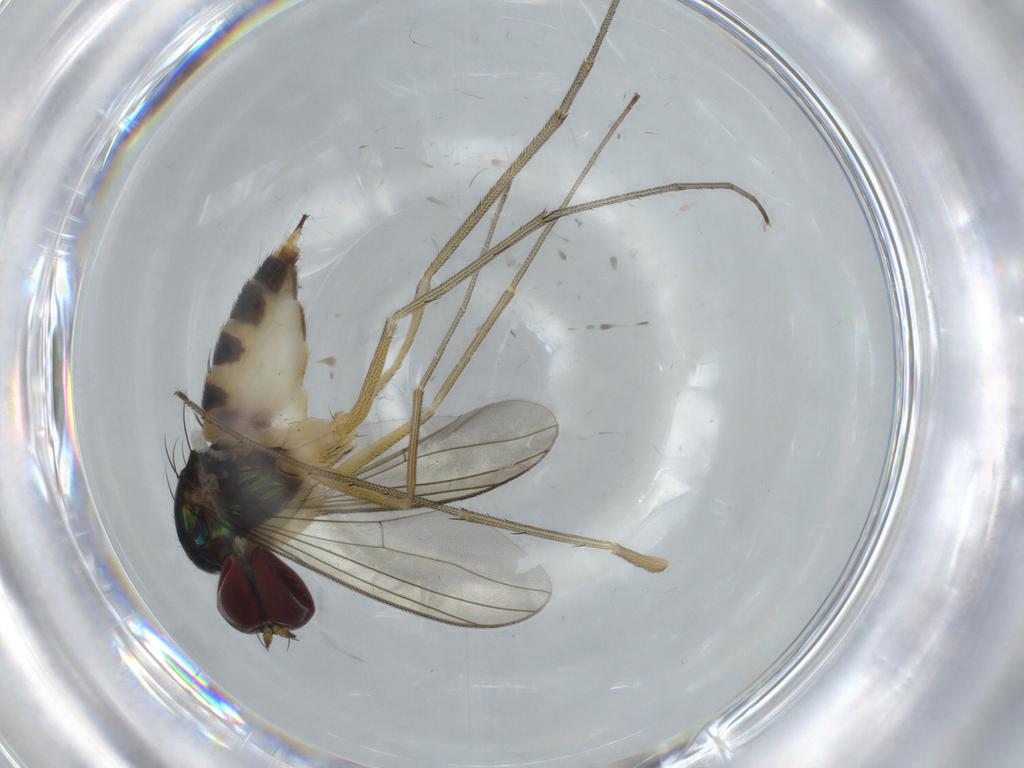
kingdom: Animalia
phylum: Arthropoda
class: Insecta
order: Diptera
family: Dolichopodidae
